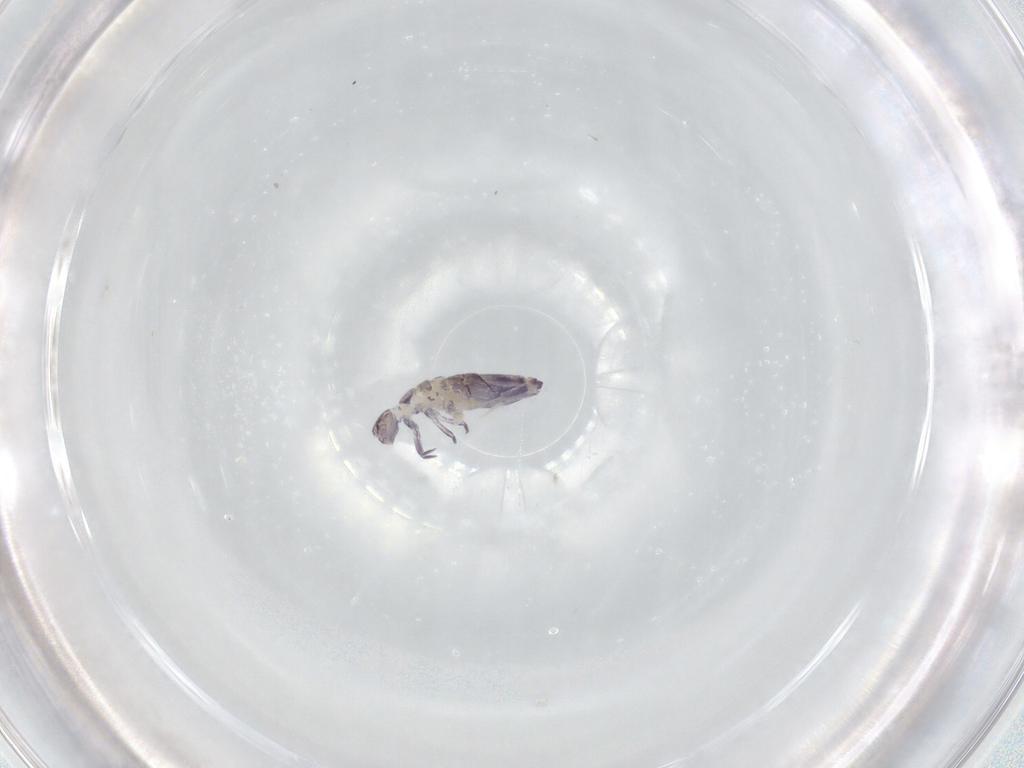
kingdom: Animalia
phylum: Arthropoda
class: Collembola
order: Entomobryomorpha
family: Entomobryidae
